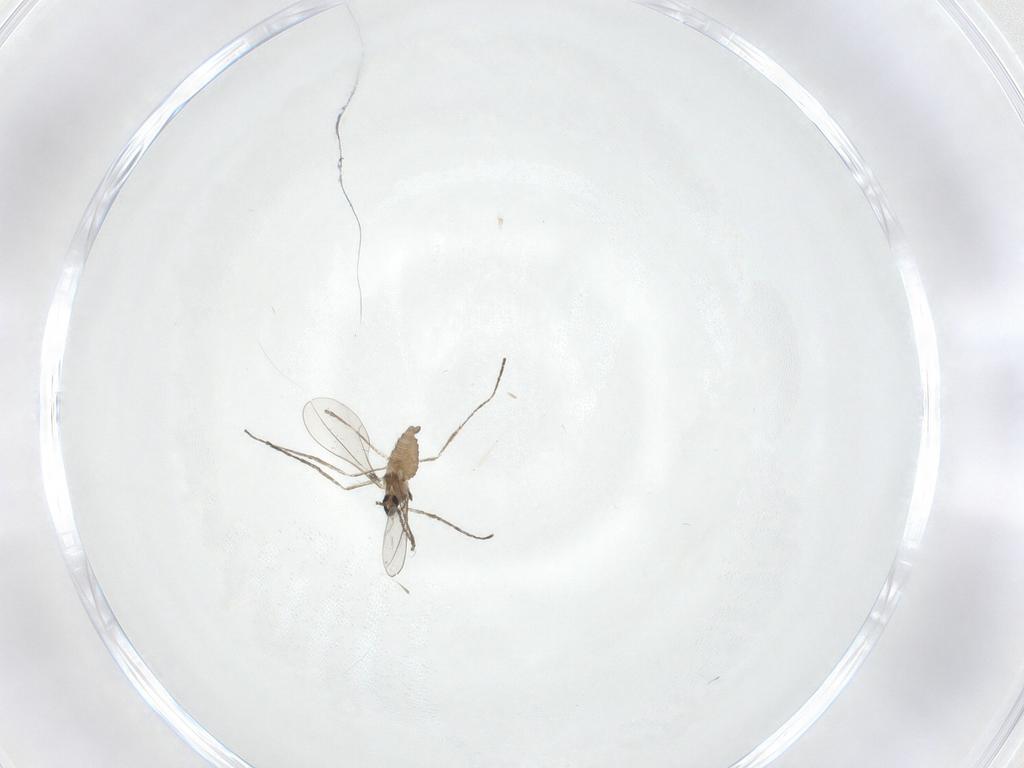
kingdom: Animalia
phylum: Arthropoda
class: Insecta
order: Diptera
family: Cecidomyiidae
